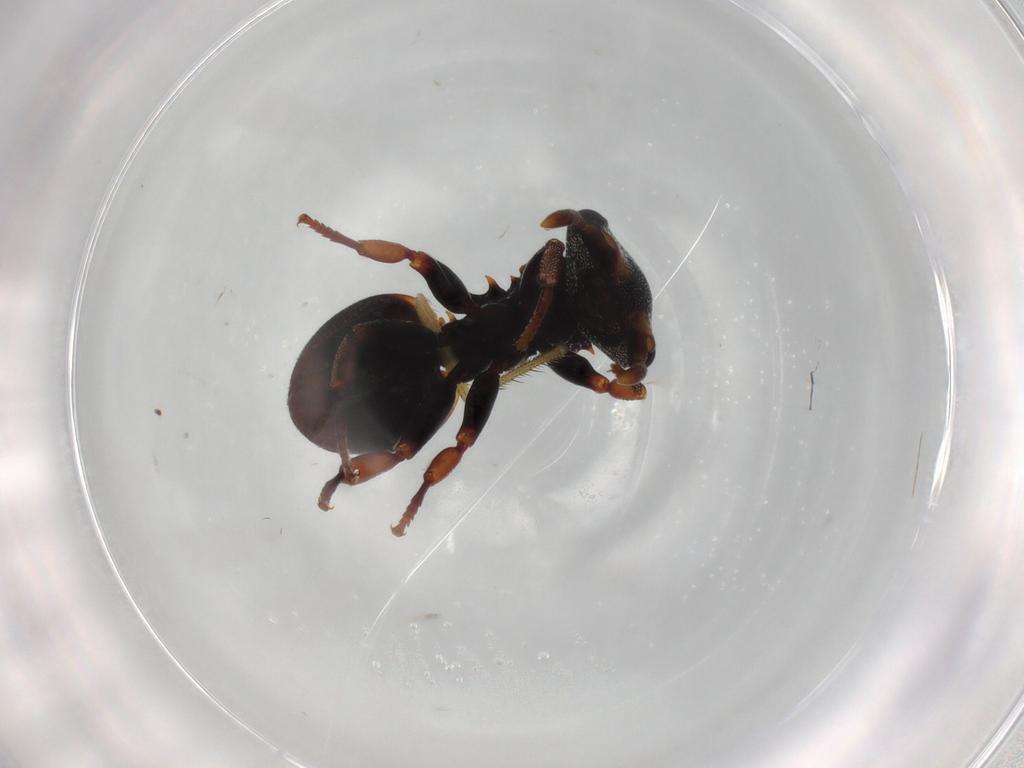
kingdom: Animalia
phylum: Arthropoda
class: Insecta
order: Hymenoptera
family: Formicidae
